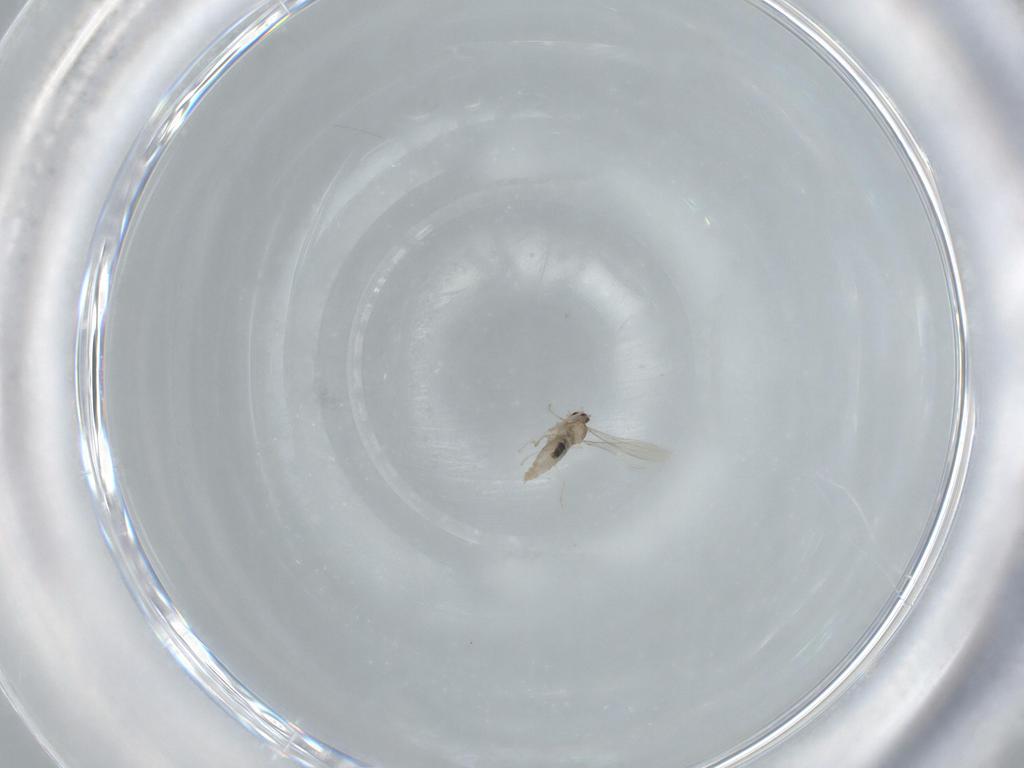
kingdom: Animalia
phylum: Arthropoda
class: Insecta
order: Diptera
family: Cecidomyiidae
